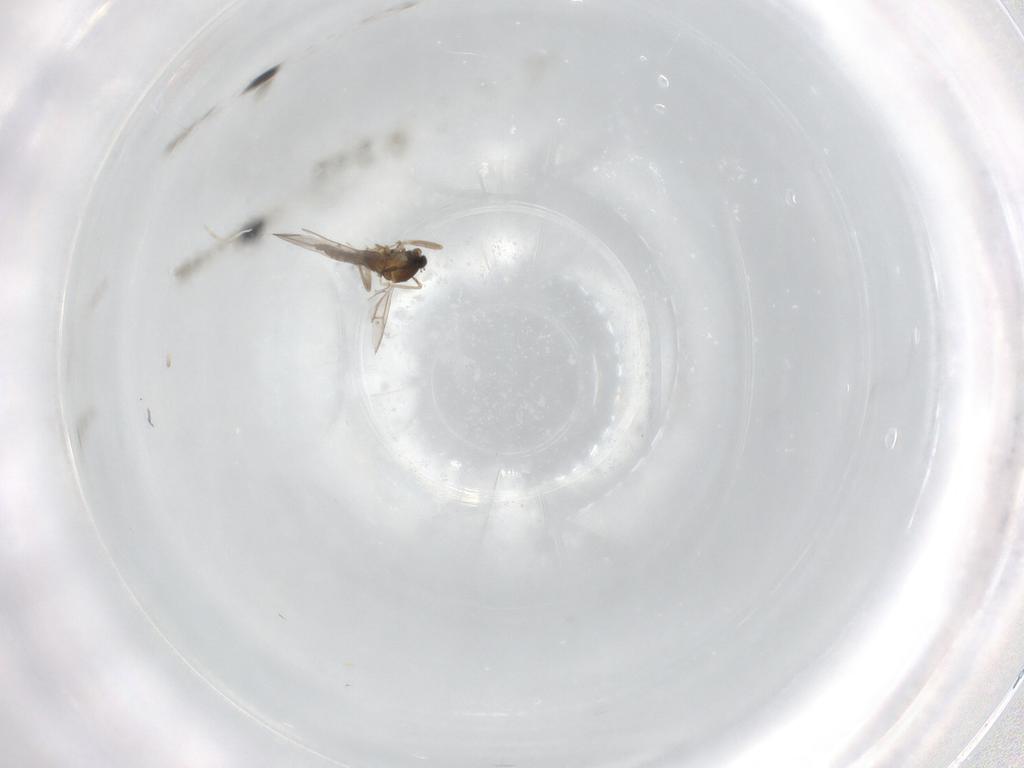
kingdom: Animalia
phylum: Arthropoda
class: Insecta
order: Diptera
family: Cecidomyiidae
